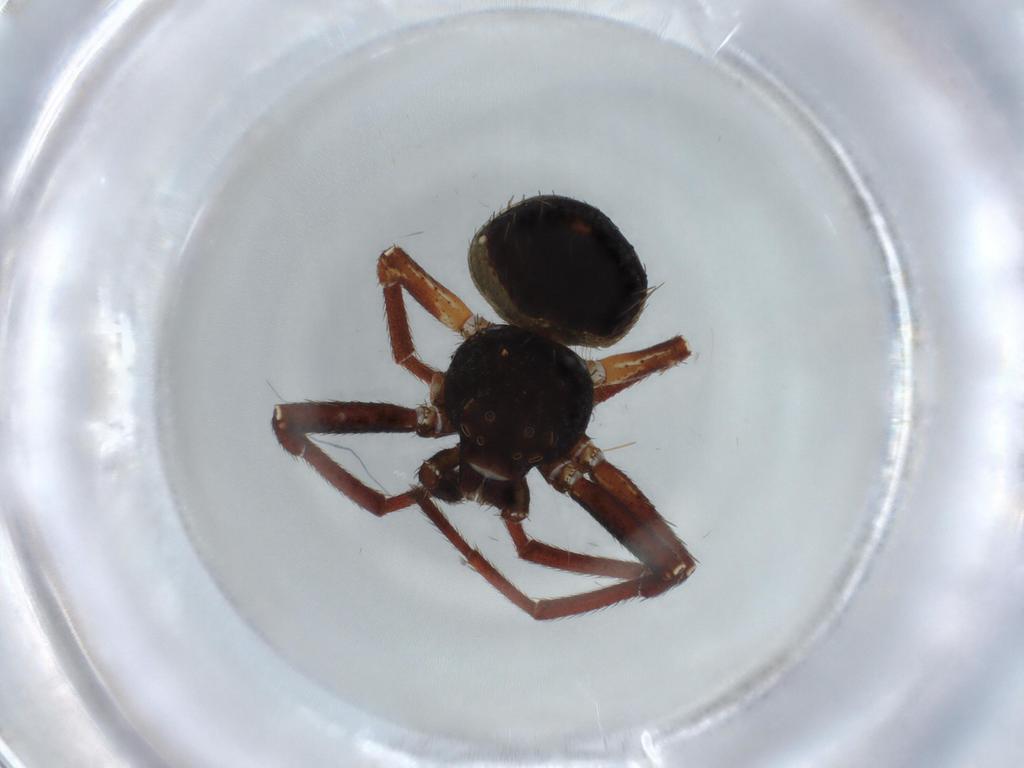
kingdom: Animalia
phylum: Arthropoda
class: Arachnida
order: Araneae
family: Thomisidae
